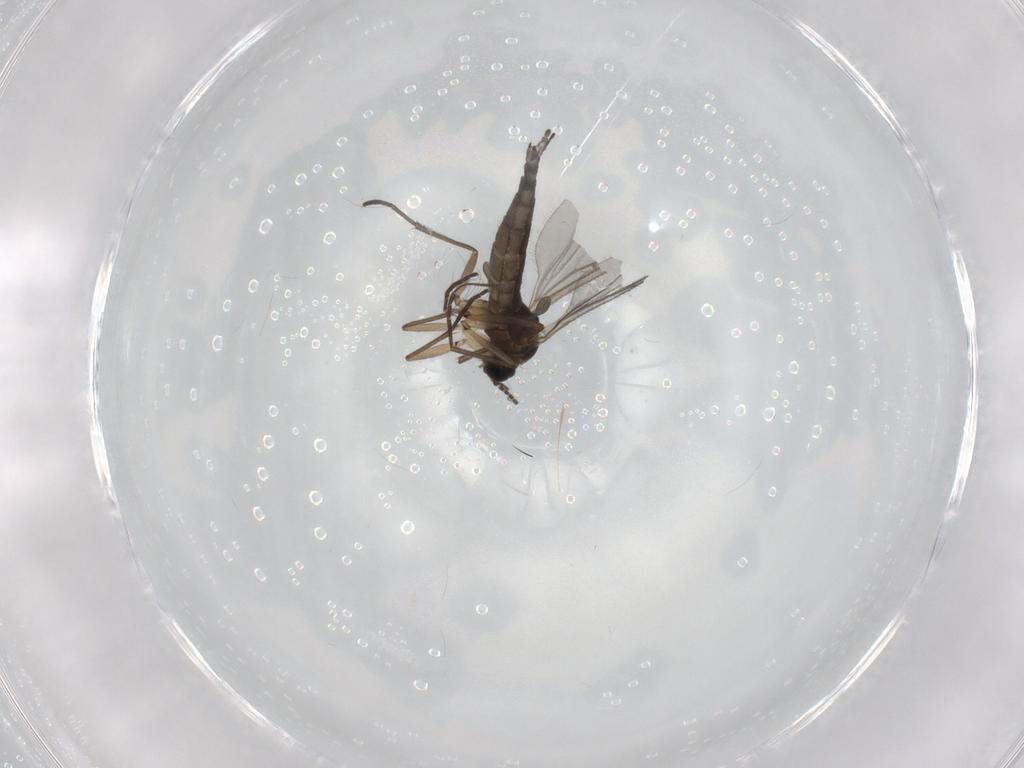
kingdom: Animalia
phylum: Arthropoda
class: Insecta
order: Diptera
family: Sciaridae
